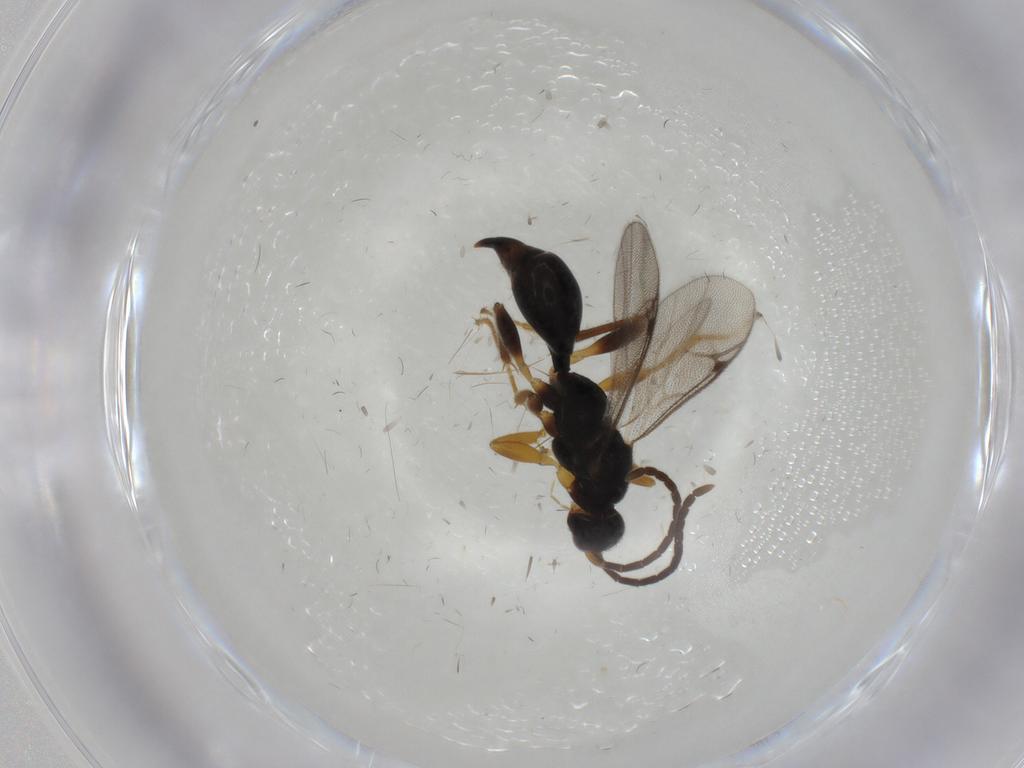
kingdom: Animalia
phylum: Arthropoda
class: Insecta
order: Hymenoptera
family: Proctotrupidae
